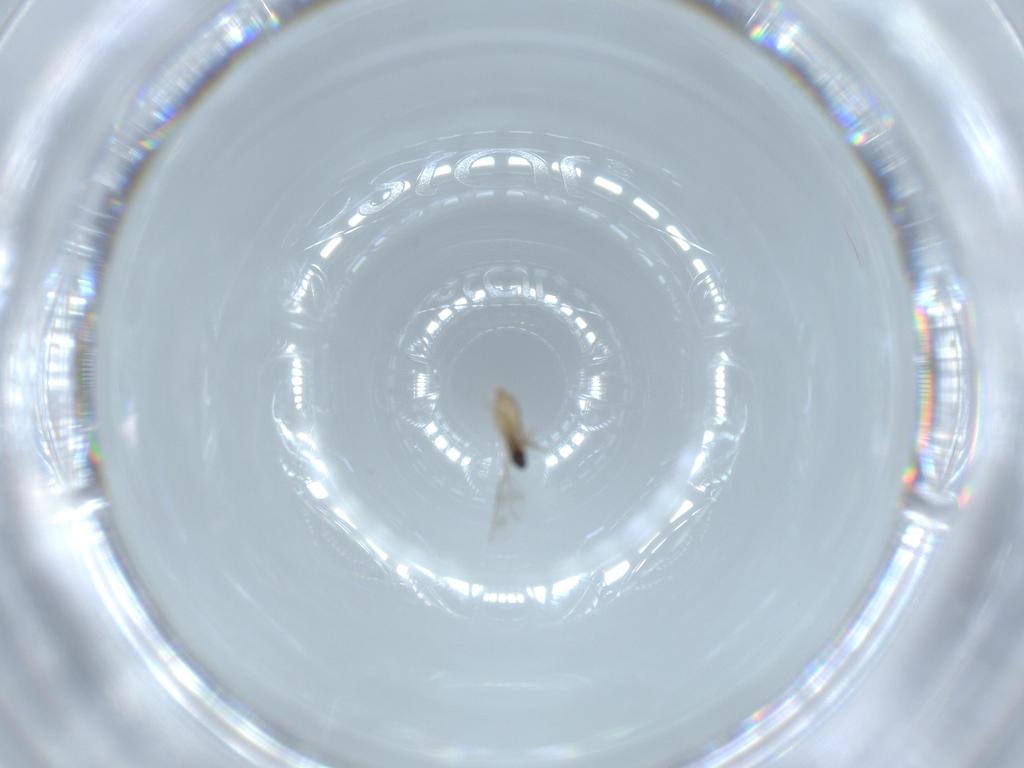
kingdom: Animalia
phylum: Arthropoda
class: Insecta
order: Diptera
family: Cecidomyiidae
